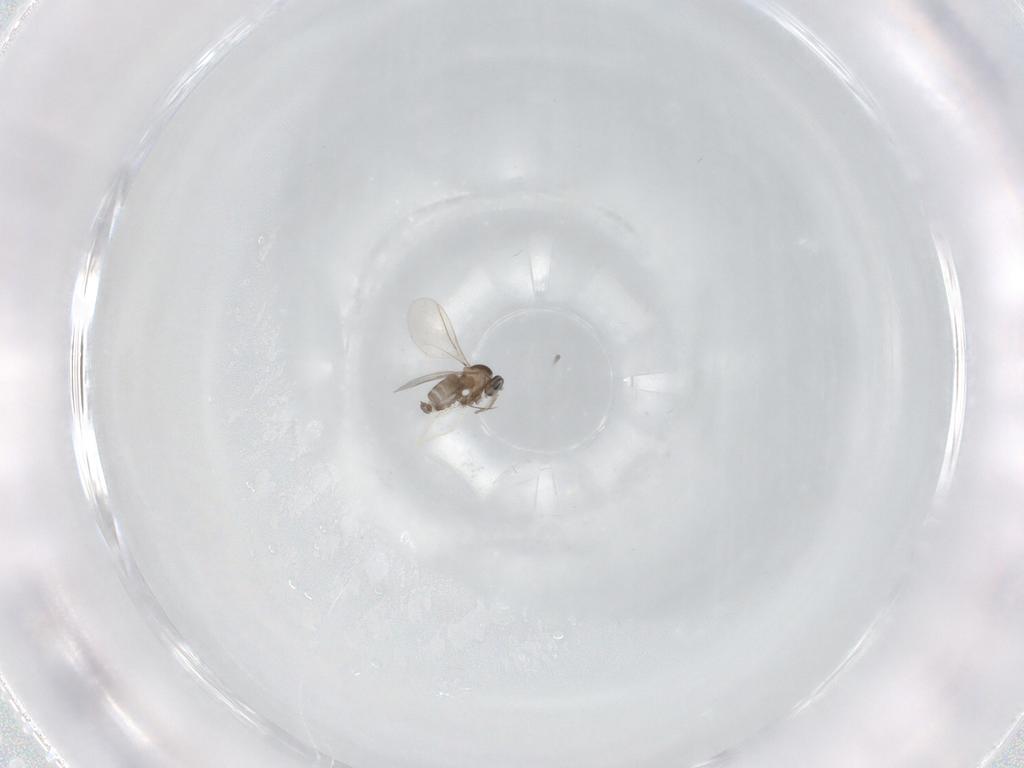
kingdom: Animalia
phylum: Arthropoda
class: Insecta
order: Diptera
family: Cecidomyiidae
